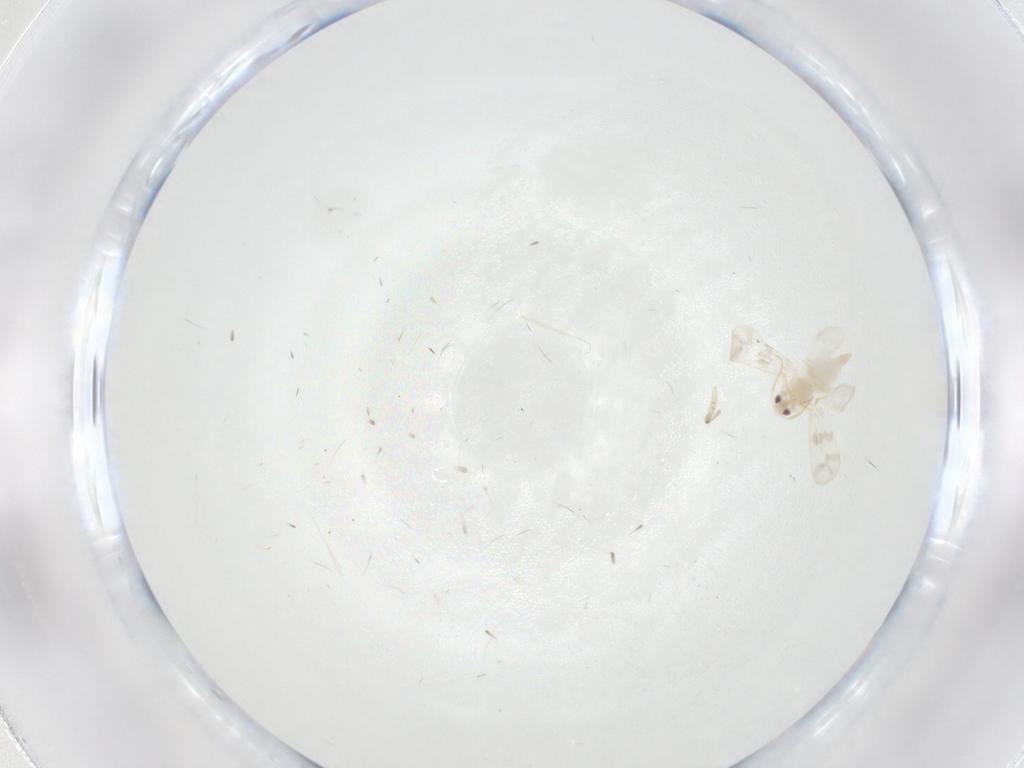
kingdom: Animalia
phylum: Arthropoda
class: Insecta
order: Hemiptera
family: Aleyrodidae
